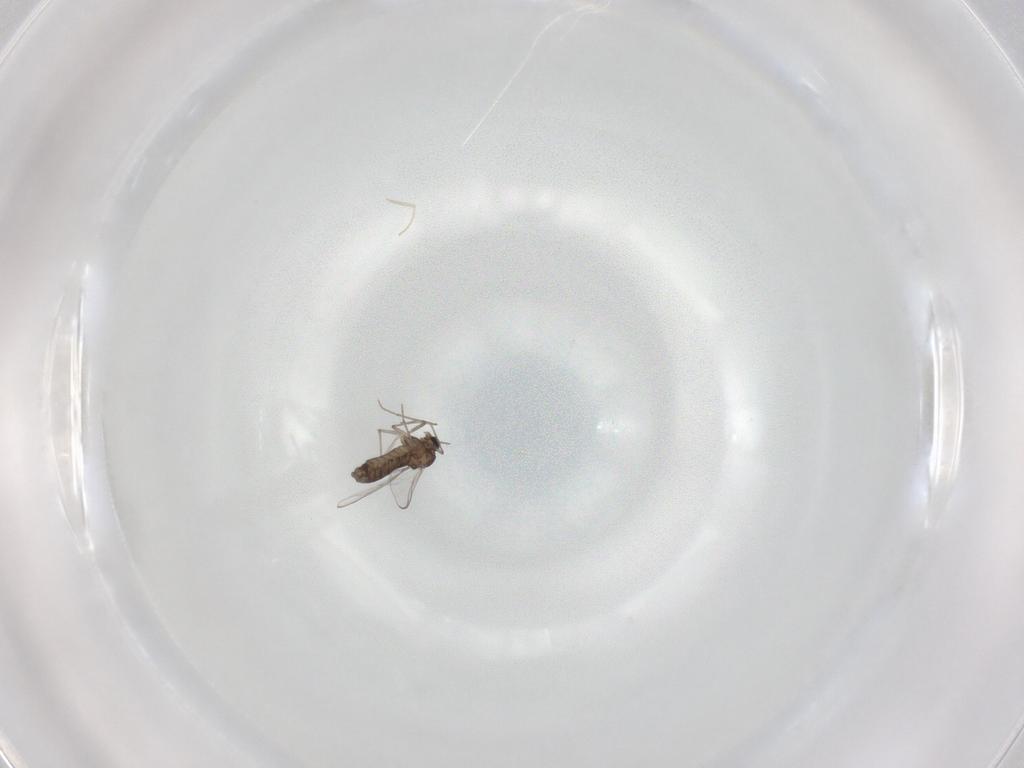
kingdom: Animalia
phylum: Arthropoda
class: Insecta
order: Diptera
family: Chironomidae
